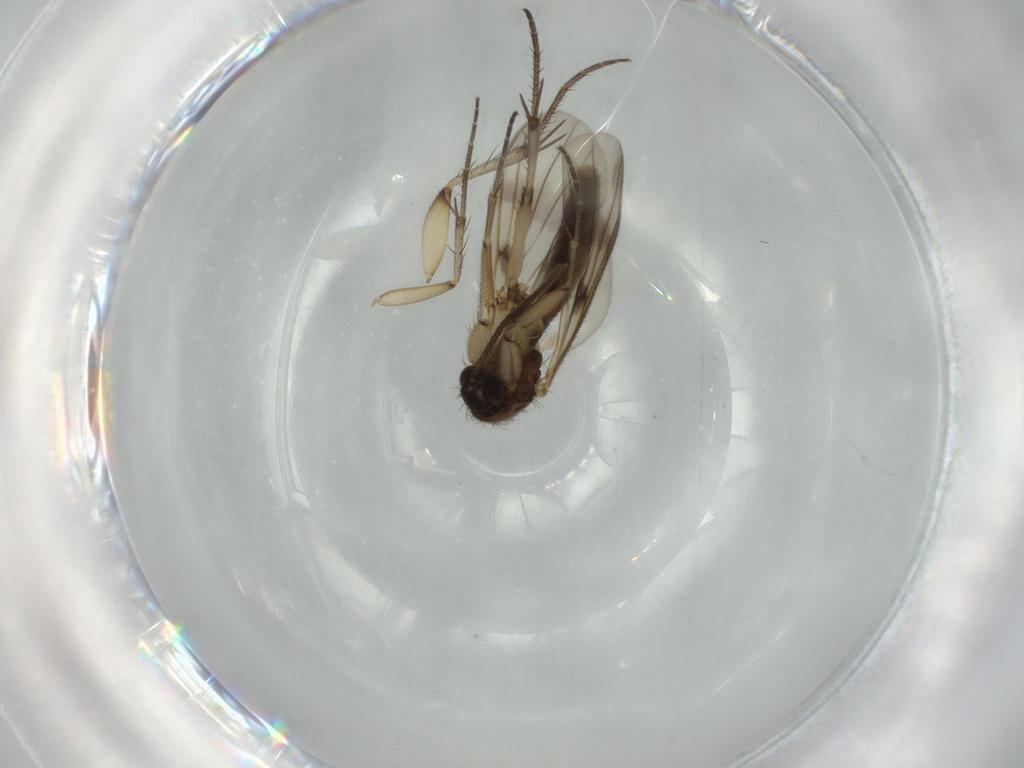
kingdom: Animalia
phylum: Arthropoda
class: Insecta
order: Diptera
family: Phoridae
